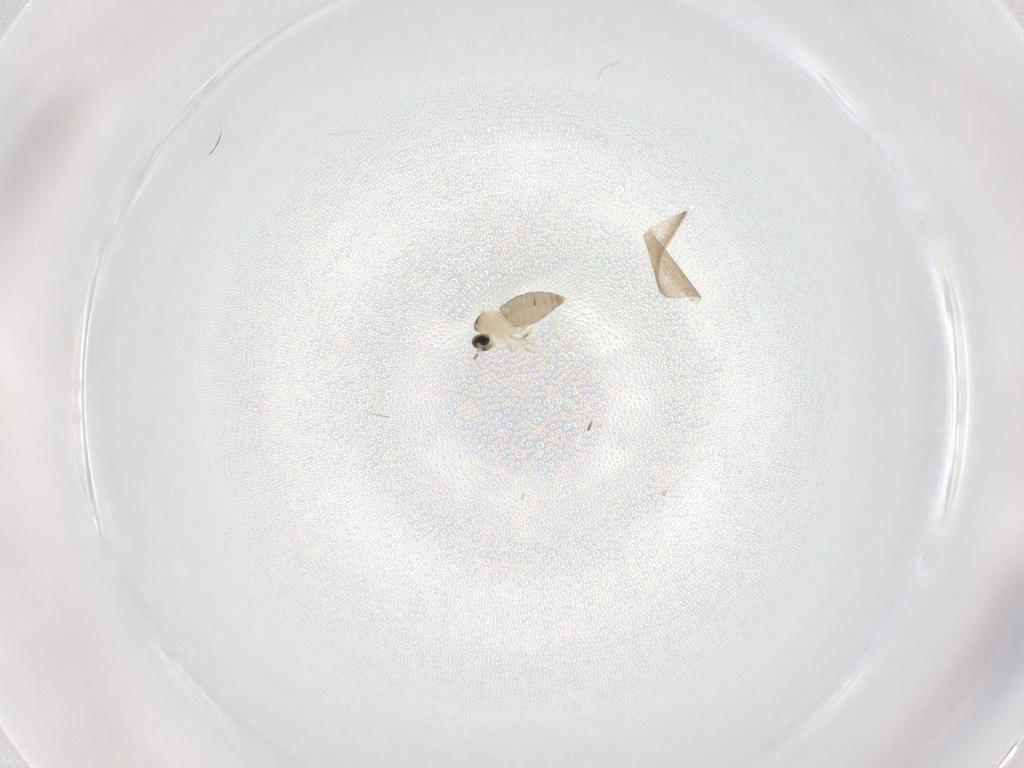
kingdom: Animalia
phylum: Arthropoda
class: Insecta
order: Diptera
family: Cecidomyiidae
